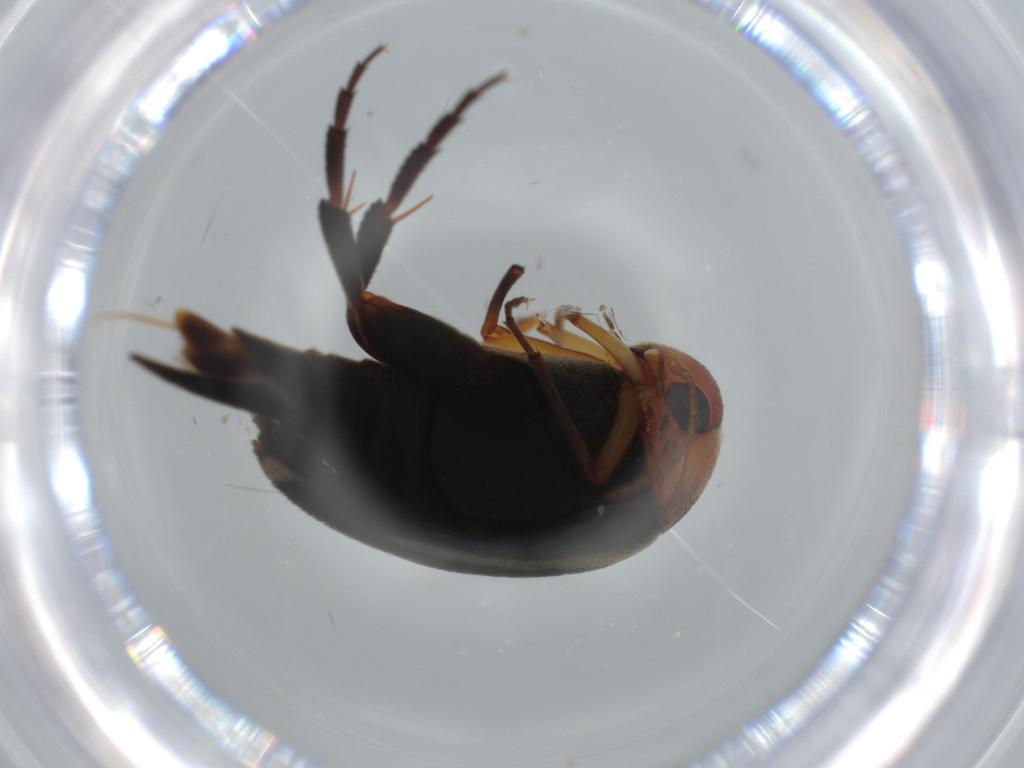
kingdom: Animalia
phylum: Arthropoda
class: Insecta
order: Coleoptera
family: Mordellidae
